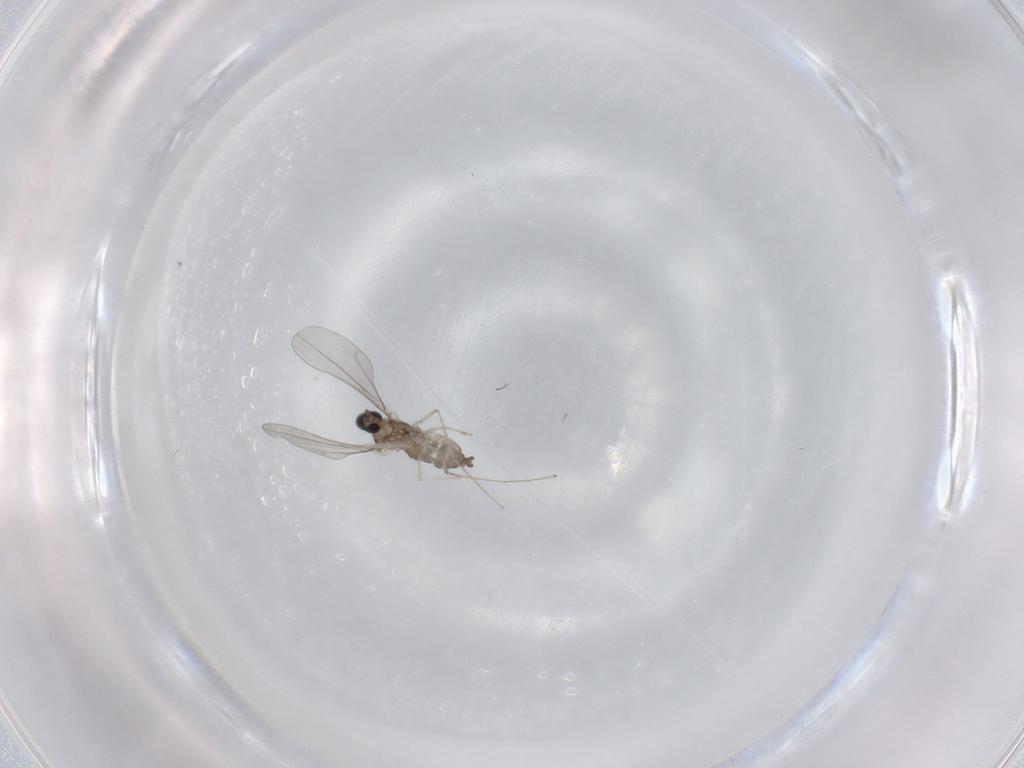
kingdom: Animalia
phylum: Arthropoda
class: Insecta
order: Diptera
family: Cecidomyiidae
